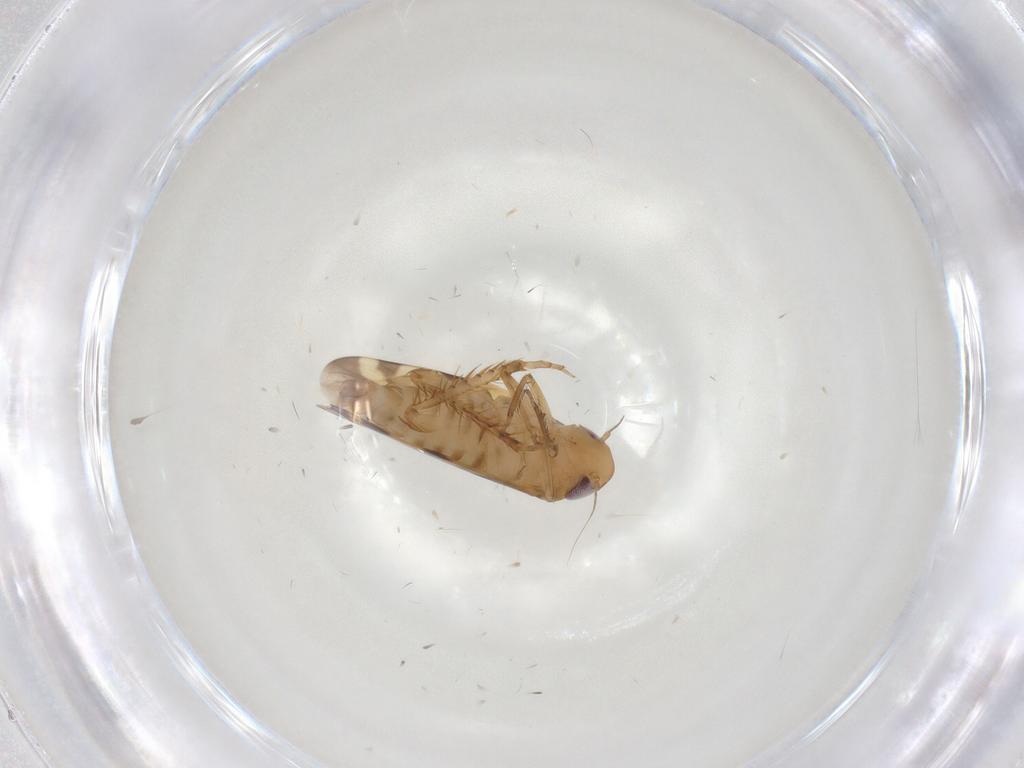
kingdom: Animalia
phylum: Arthropoda
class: Insecta
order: Hemiptera
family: Cicadellidae
